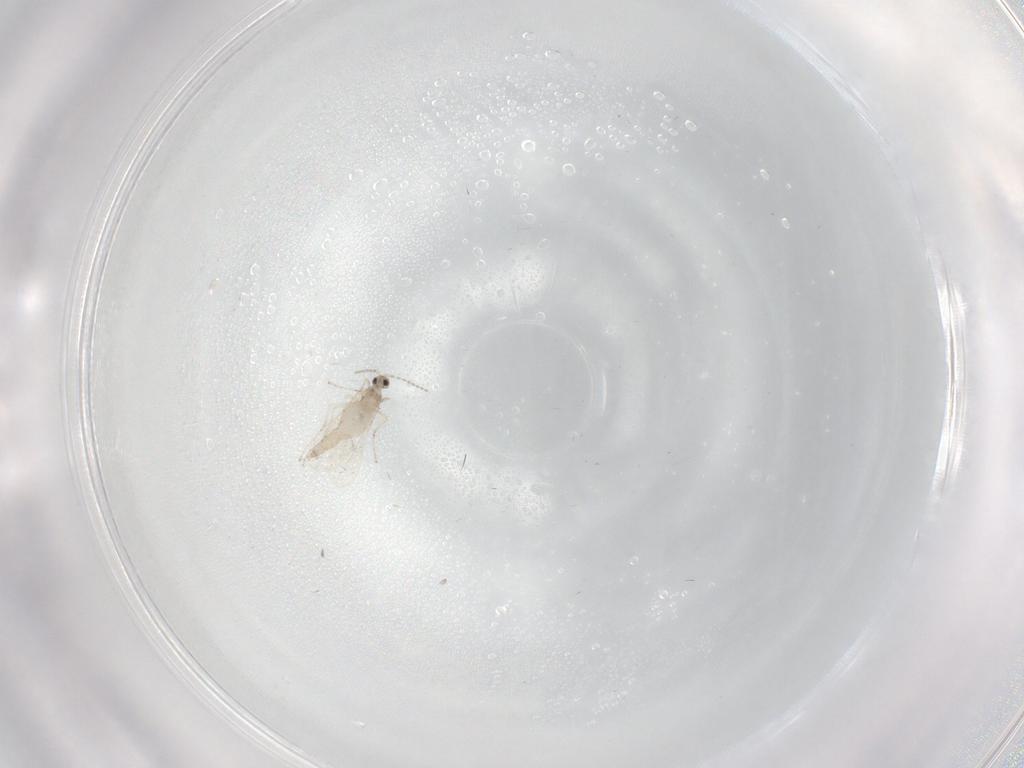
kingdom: Animalia
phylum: Arthropoda
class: Insecta
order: Diptera
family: Cecidomyiidae
